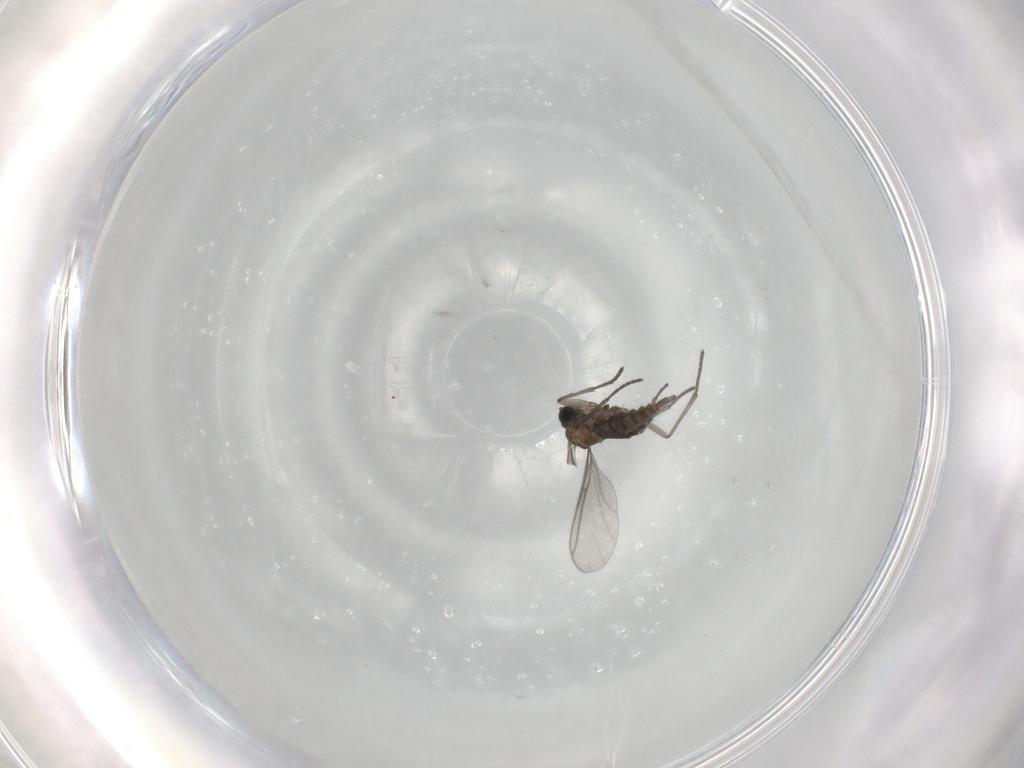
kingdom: Animalia
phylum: Arthropoda
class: Insecta
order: Diptera
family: Sciaridae
